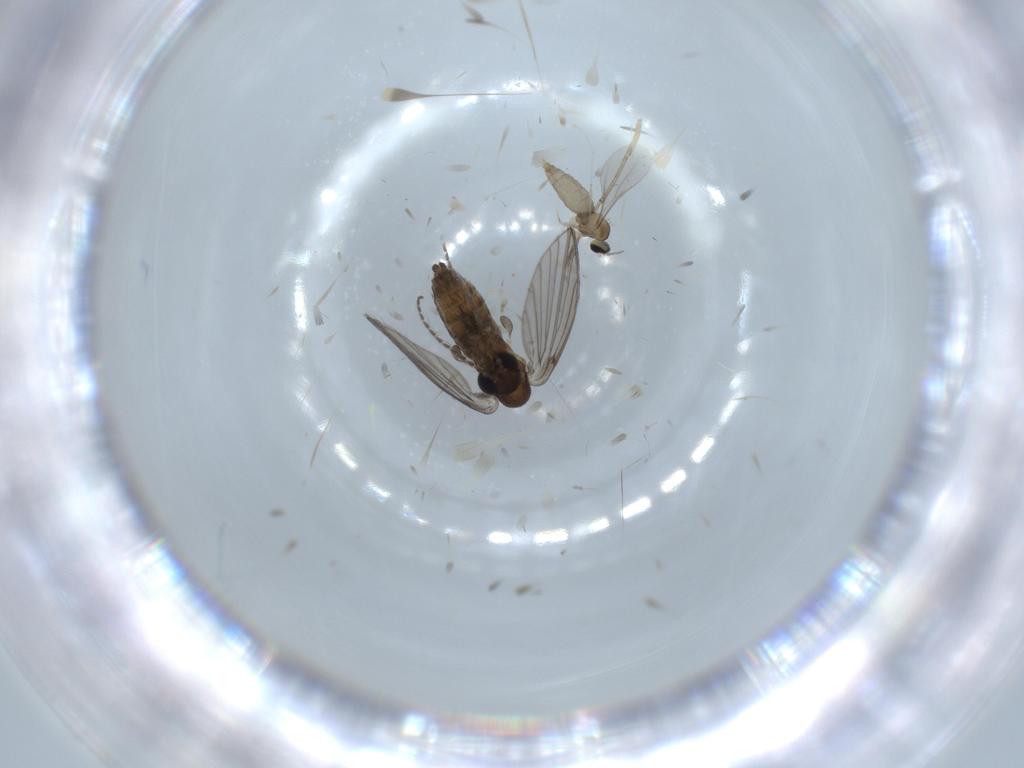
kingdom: Animalia
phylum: Arthropoda
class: Insecta
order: Diptera
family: Psychodidae
